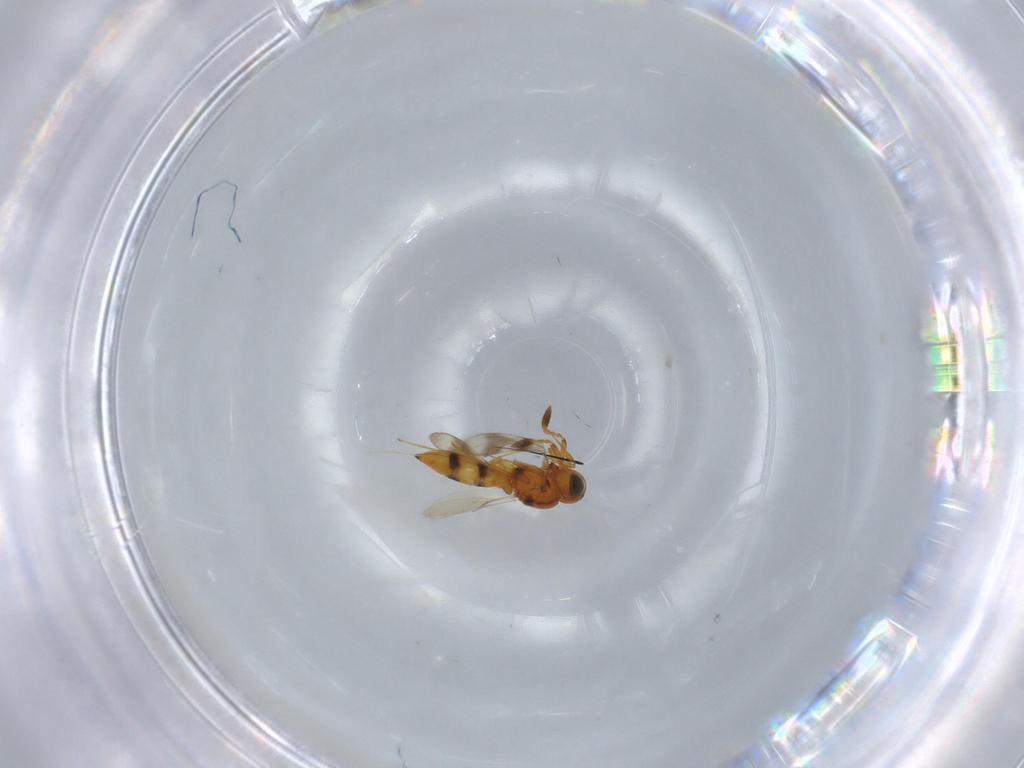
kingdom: Animalia
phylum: Arthropoda
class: Insecta
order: Hymenoptera
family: Scelionidae
